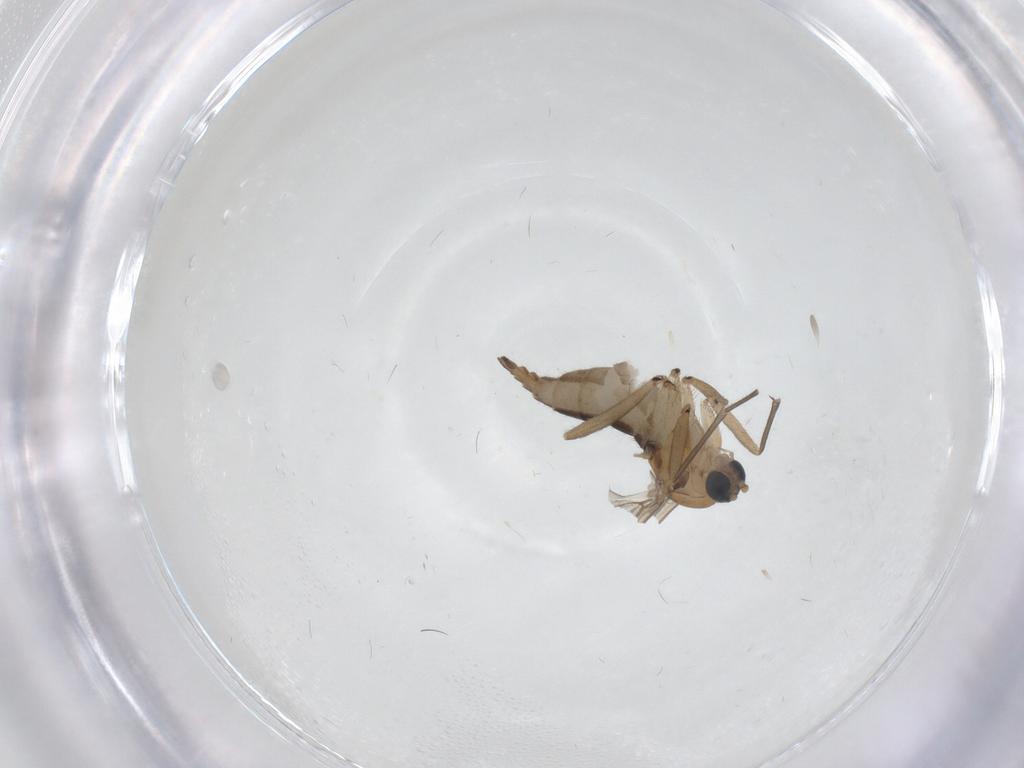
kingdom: Animalia
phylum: Arthropoda
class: Insecta
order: Diptera
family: Sciaridae
